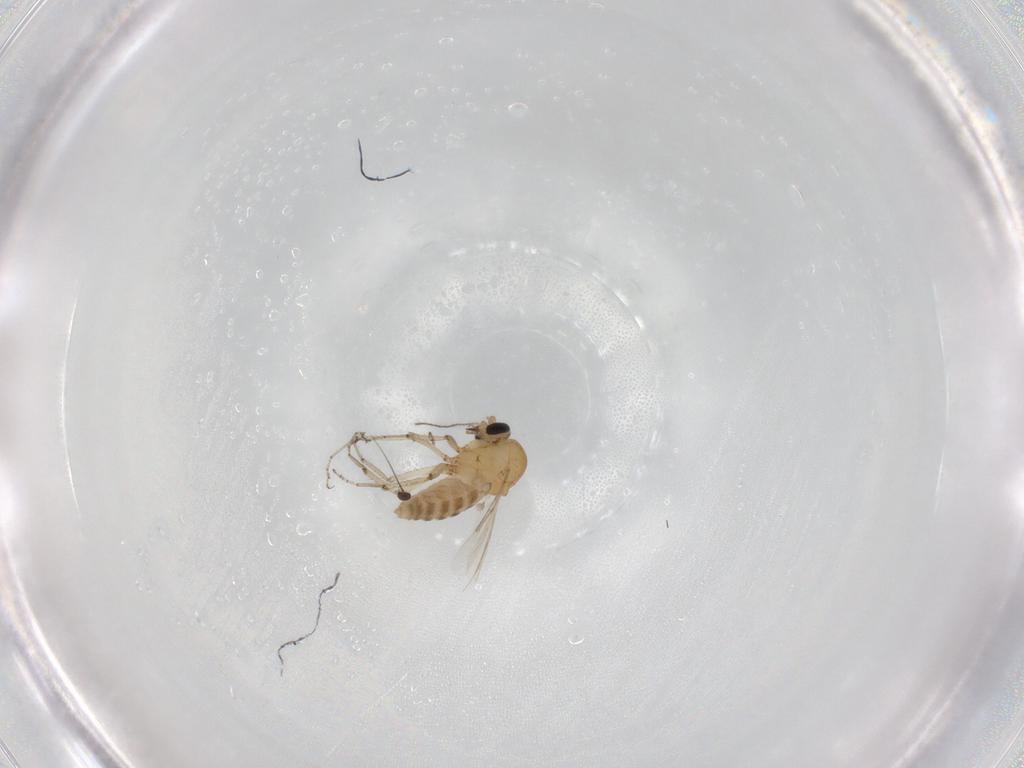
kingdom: Animalia
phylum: Arthropoda
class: Insecta
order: Diptera
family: Ceratopogonidae
